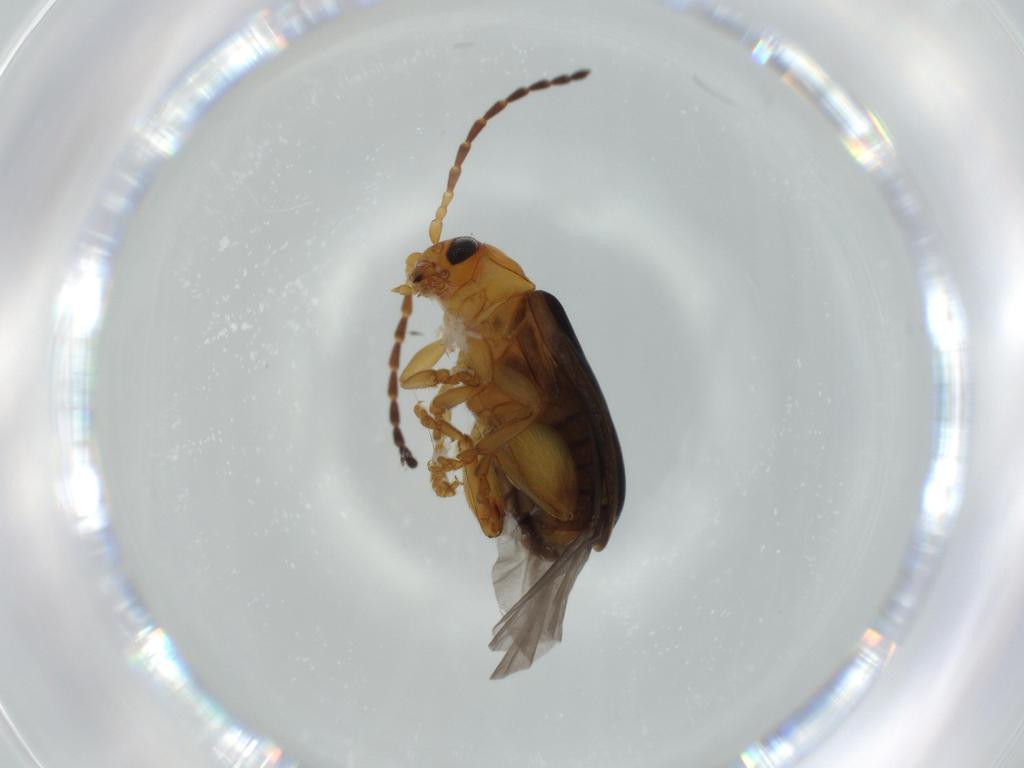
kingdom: Animalia
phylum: Arthropoda
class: Insecta
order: Coleoptera
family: Chrysomelidae
